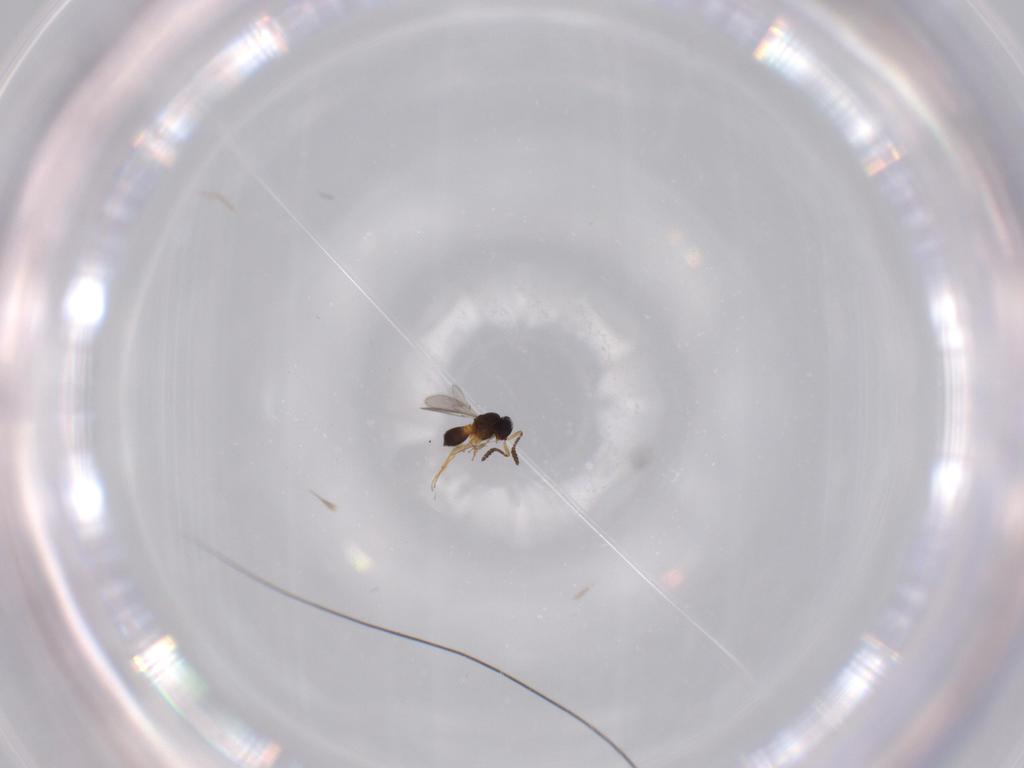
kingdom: Animalia
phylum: Arthropoda
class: Insecta
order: Hymenoptera
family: Scelionidae
